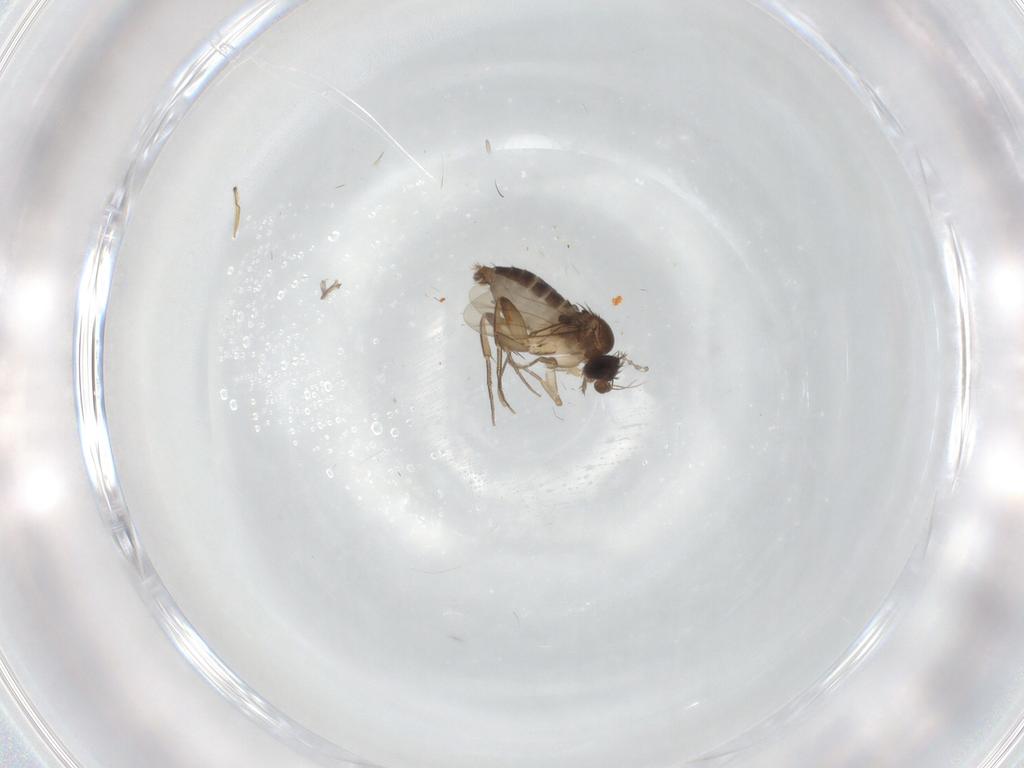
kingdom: Animalia
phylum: Arthropoda
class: Insecta
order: Diptera
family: Phoridae
